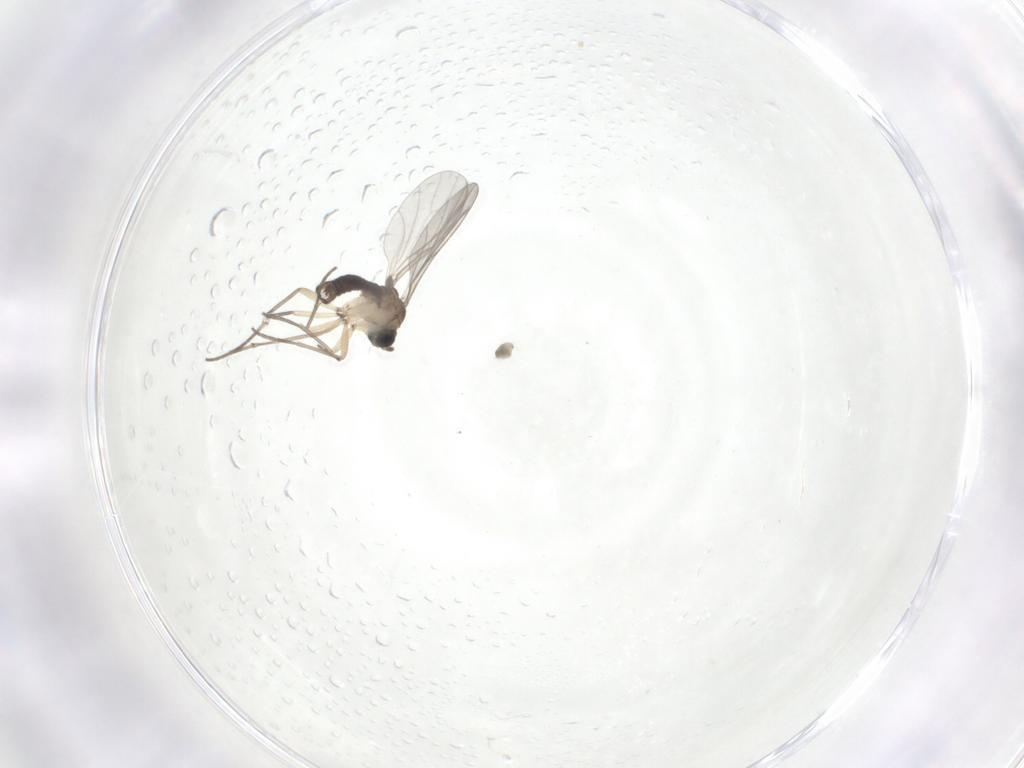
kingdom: Animalia
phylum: Arthropoda
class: Insecta
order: Diptera
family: Sciaridae
